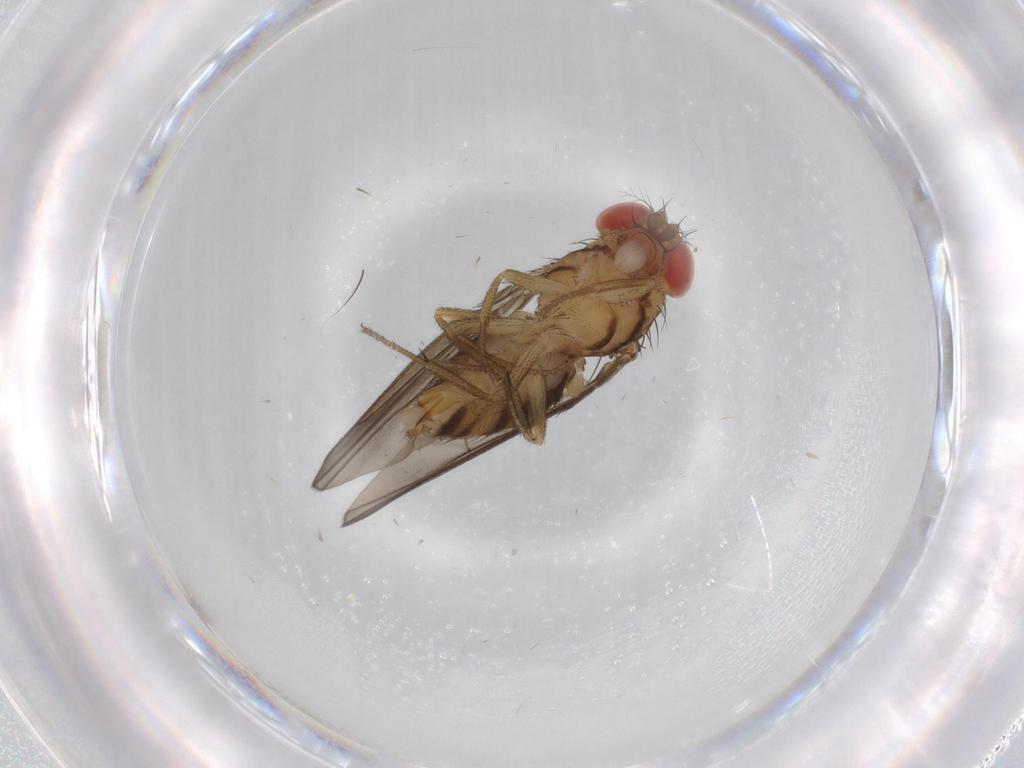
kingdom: Animalia
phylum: Arthropoda
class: Insecta
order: Diptera
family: Drosophilidae
